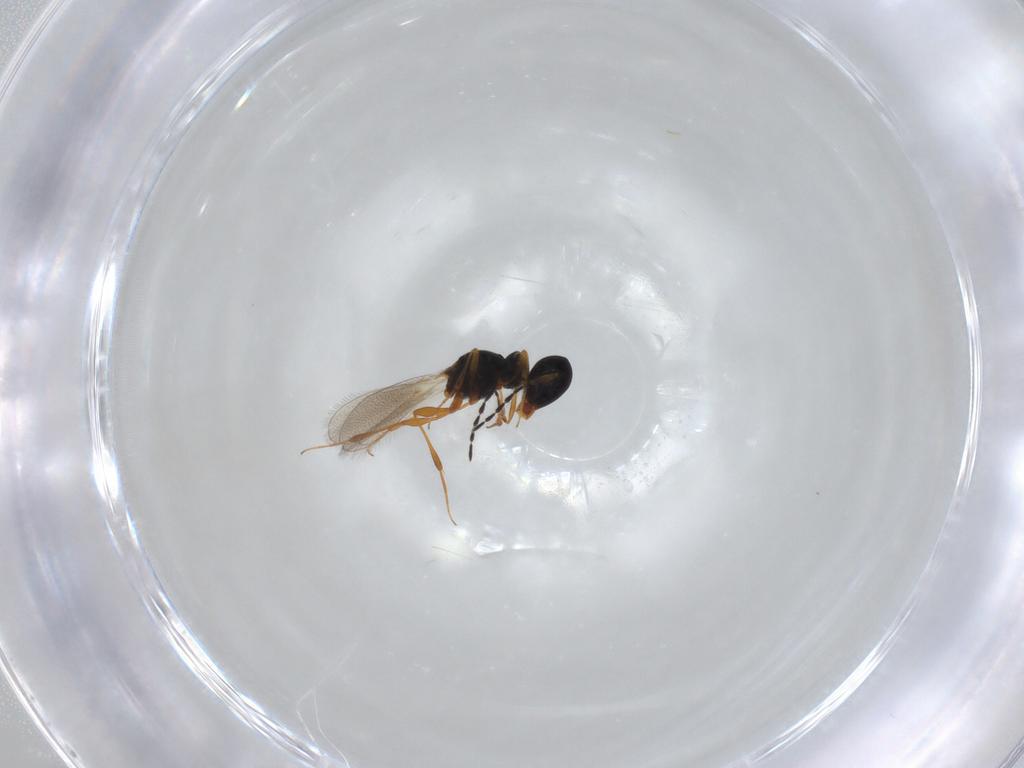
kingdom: Animalia
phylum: Arthropoda
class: Insecta
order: Hymenoptera
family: Platygastridae
